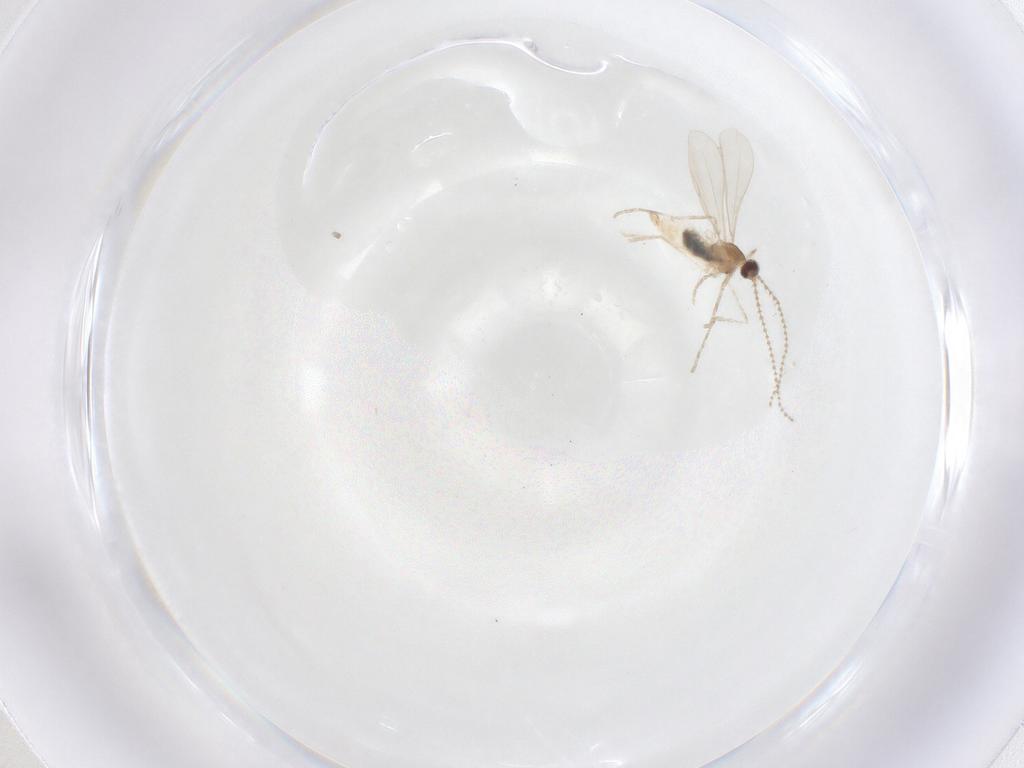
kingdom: Animalia
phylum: Arthropoda
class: Insecta
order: Diptera
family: Cecidomyiidae
